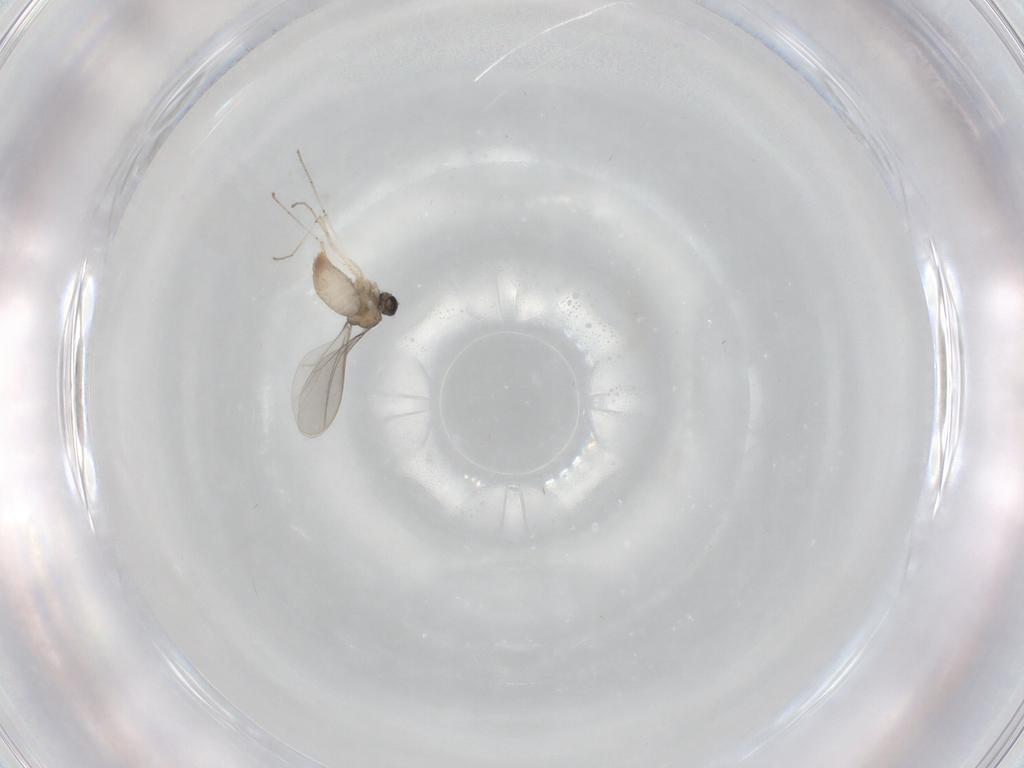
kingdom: Animalia
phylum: Arthropoda
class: Insecta
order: Diptera
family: Cecidomyiidae
